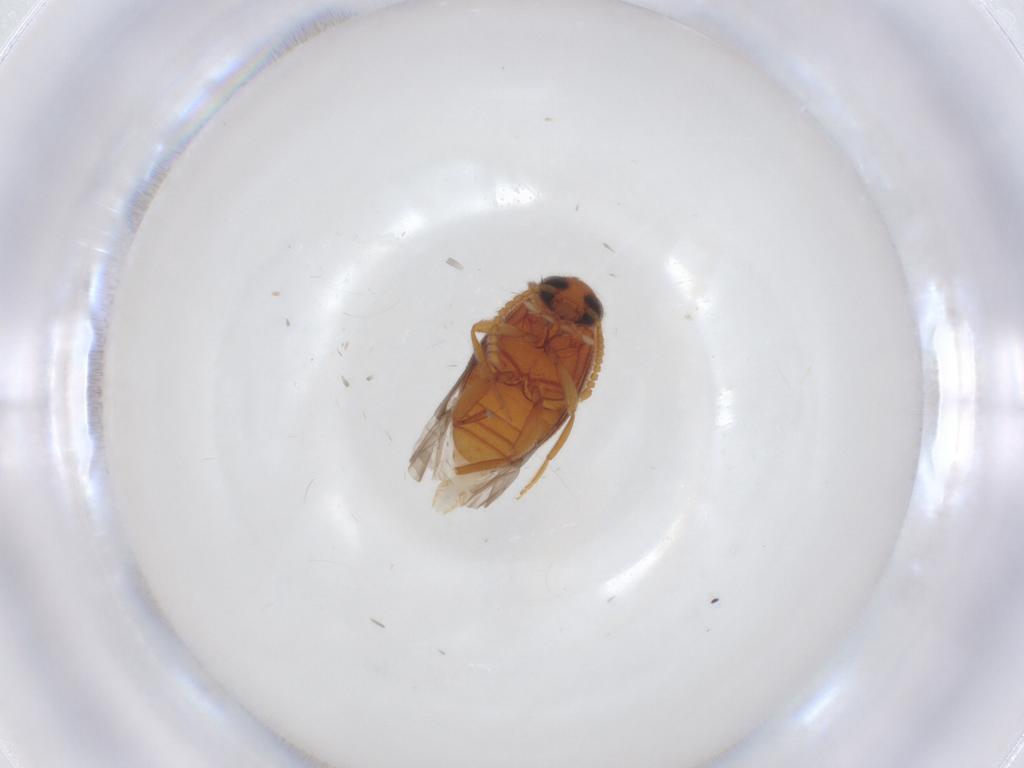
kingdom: Animalia
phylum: Arthropoda
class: Insecta
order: Coleoptera
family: Aderidae
